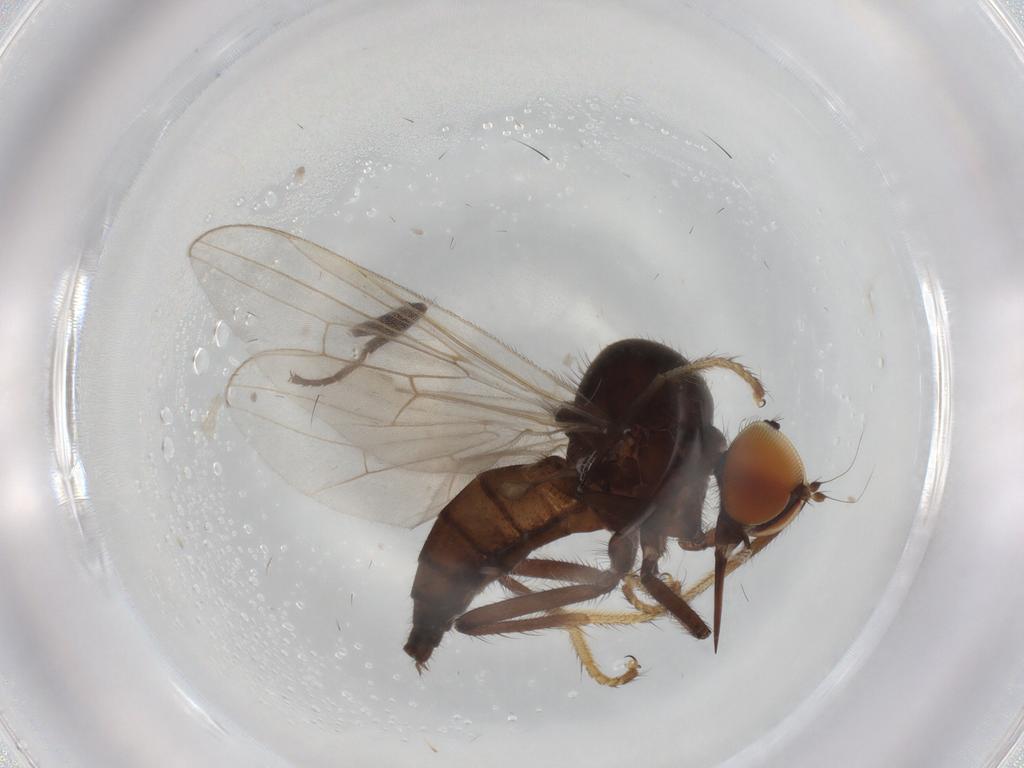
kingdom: Animalia
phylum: Arthropoda
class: Insecta
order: Diptera
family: Hybotidae
